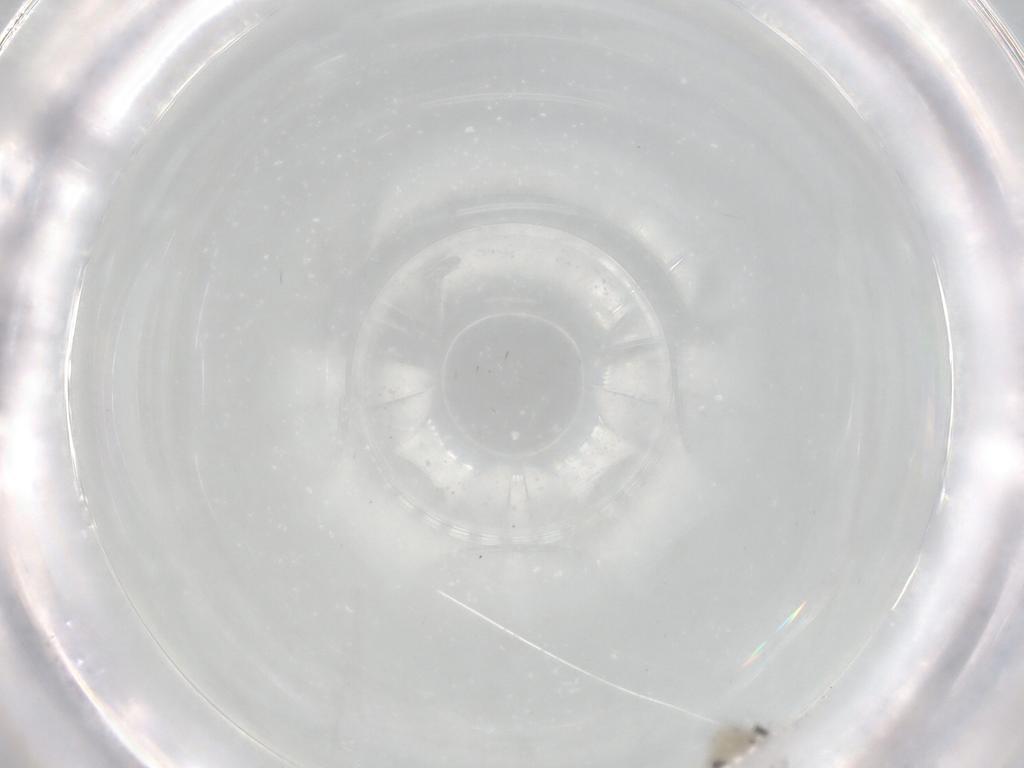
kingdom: Animalia
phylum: Arthropoda
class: Insecta
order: Diptera
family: Cecidomyiidae
